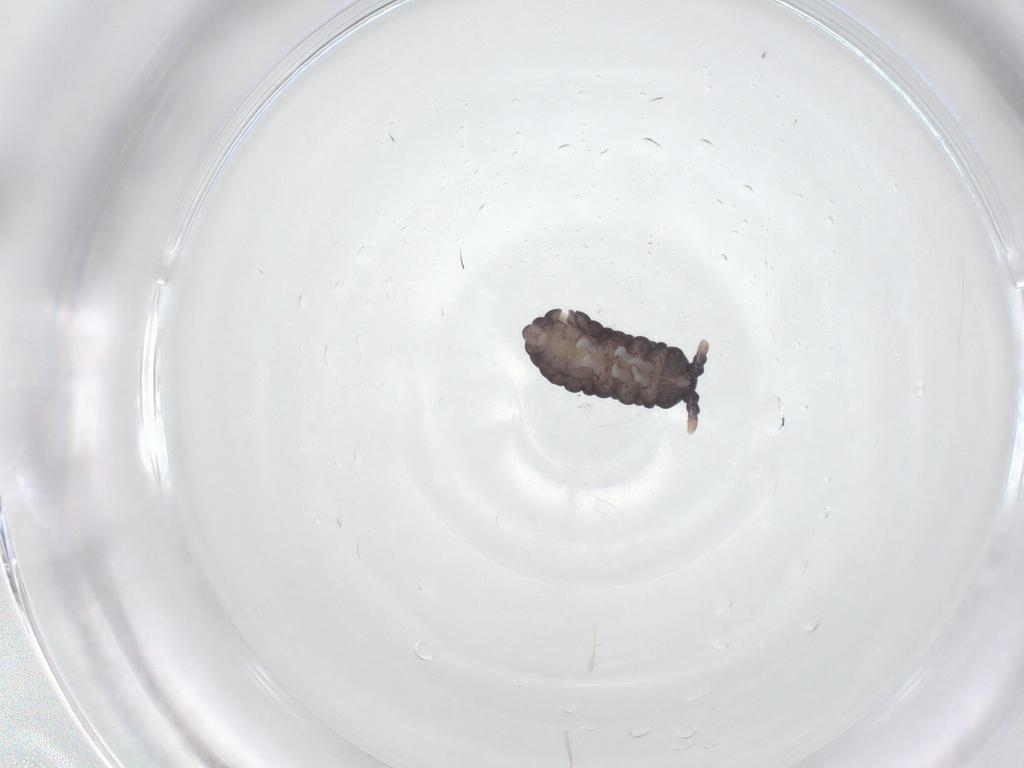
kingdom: Animalia
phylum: Arthropoda
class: Collembola
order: Poduromorpha
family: Neanuridae
